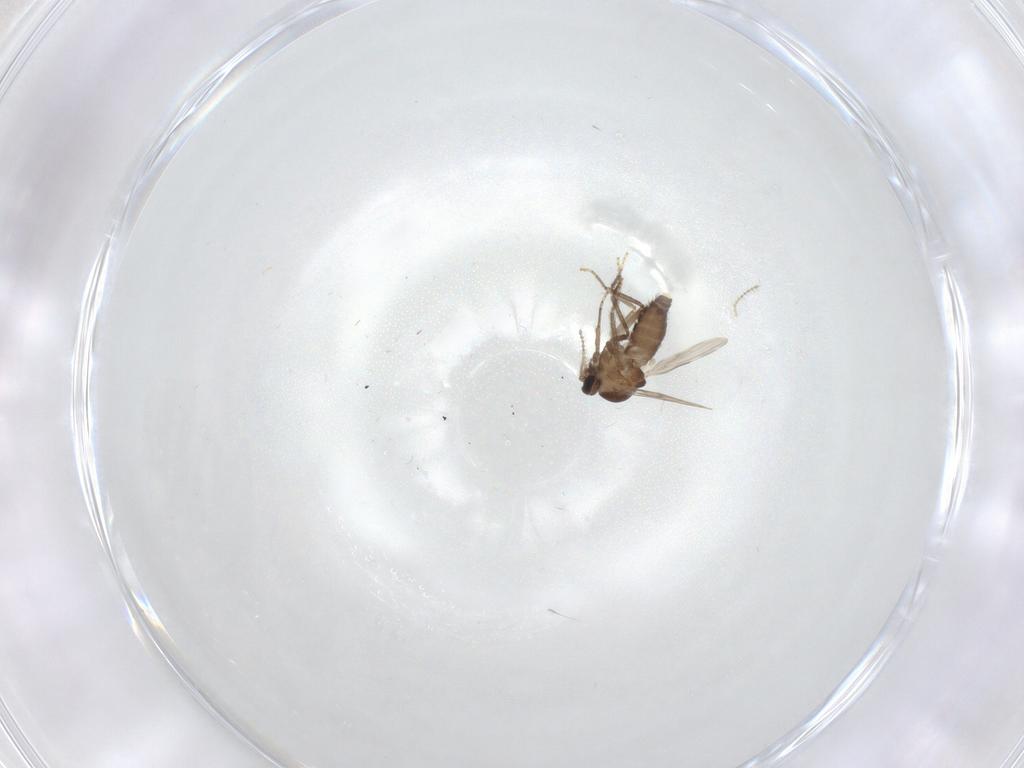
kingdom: Animalia
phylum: Arthropoda
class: Insecta
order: Diptera
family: Ceratopogonidae
